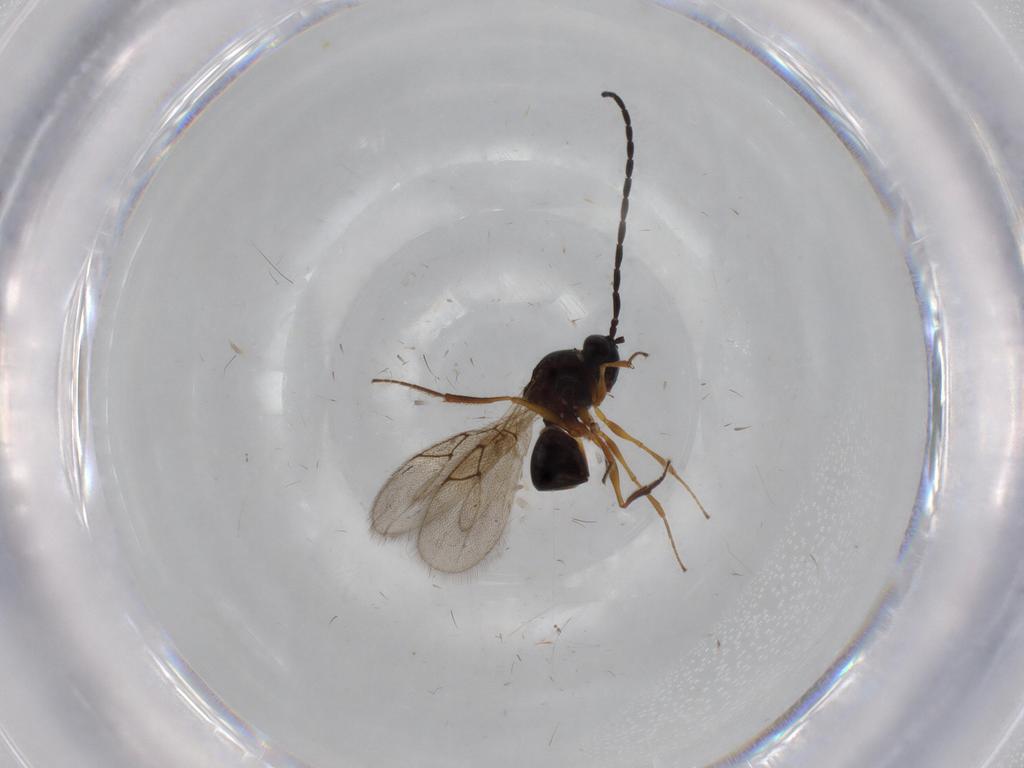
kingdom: Animalia
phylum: Arthropoda
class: Insecta
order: Hymenoptera
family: Figitidae
